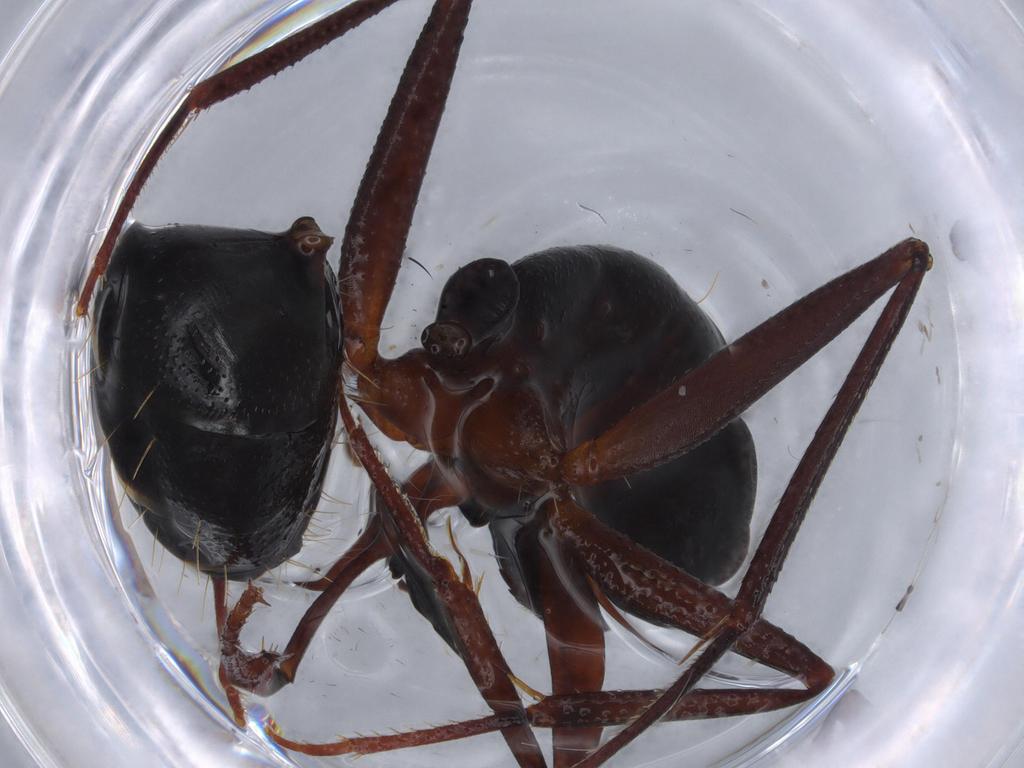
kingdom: Animalia
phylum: Arthropoda
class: Insecta
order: Hymenoptera
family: Formicidae
